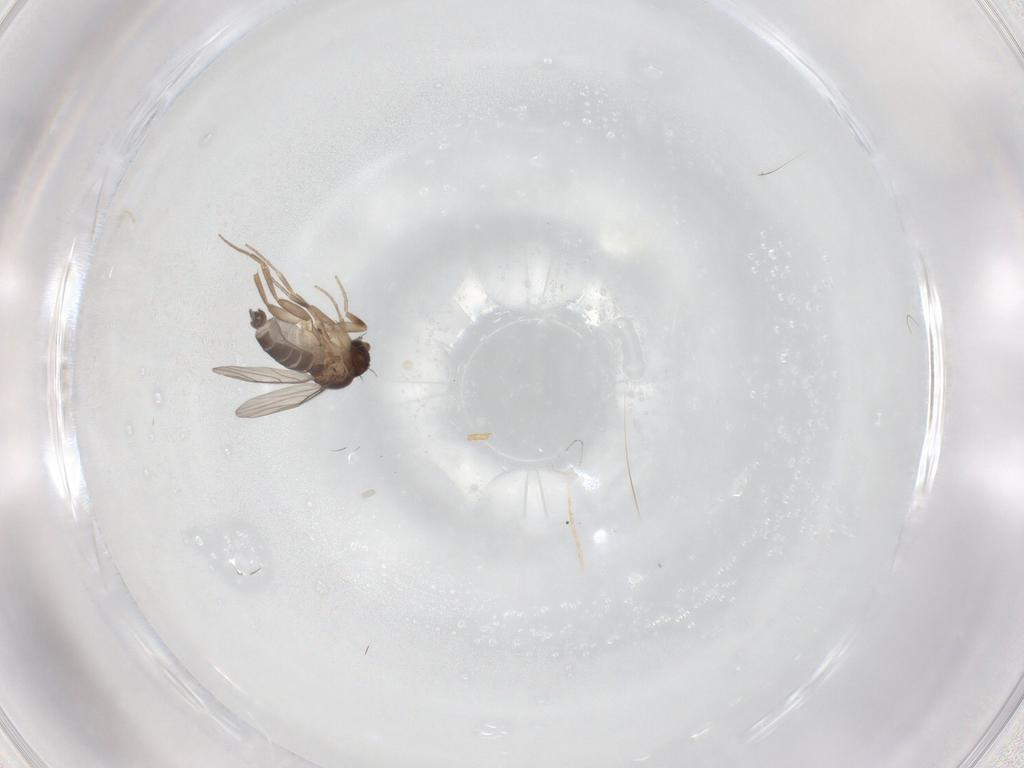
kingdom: Animalia
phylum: Arthropoda
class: Insecta
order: Diptera
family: Phoridae
